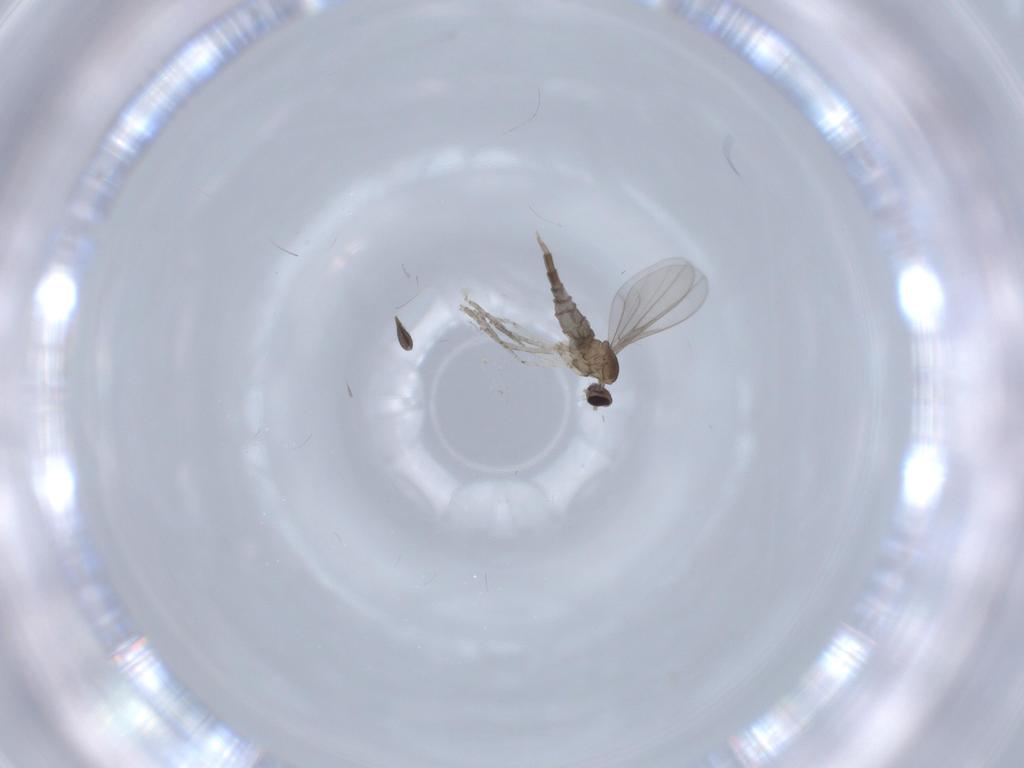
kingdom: Animalia
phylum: Arthropoda
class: Insecta
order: Diptera
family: Cecidomyiidae
